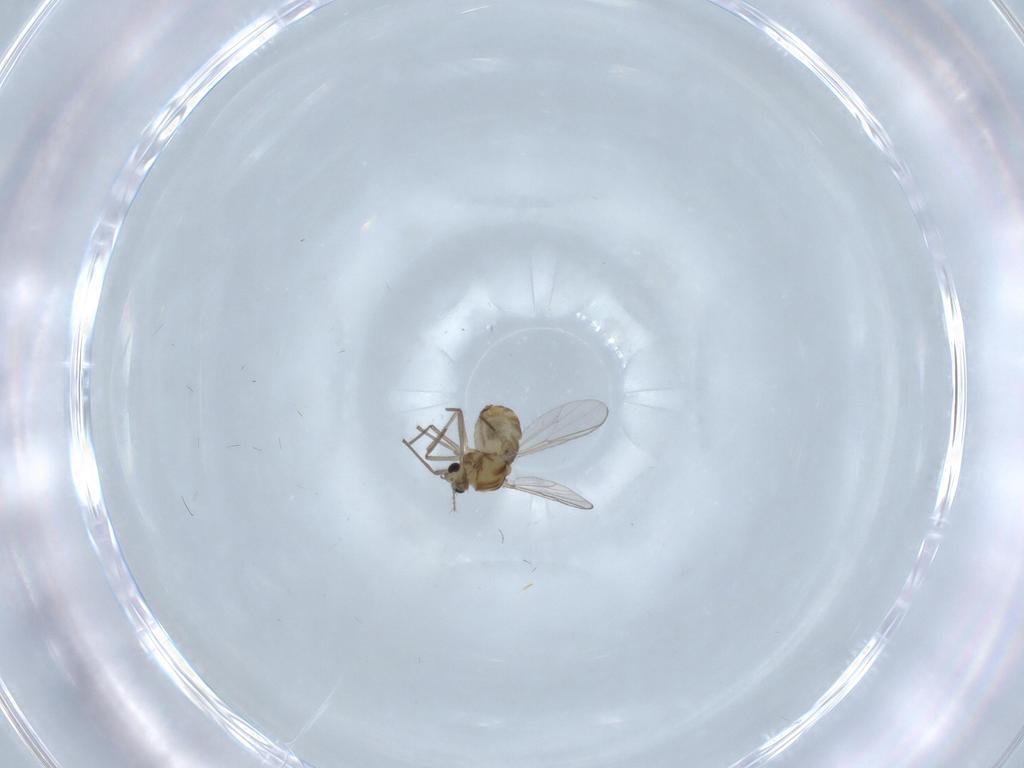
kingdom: Animalia
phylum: Arthropoda
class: Insecta
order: Diptera
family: Chironomidae
